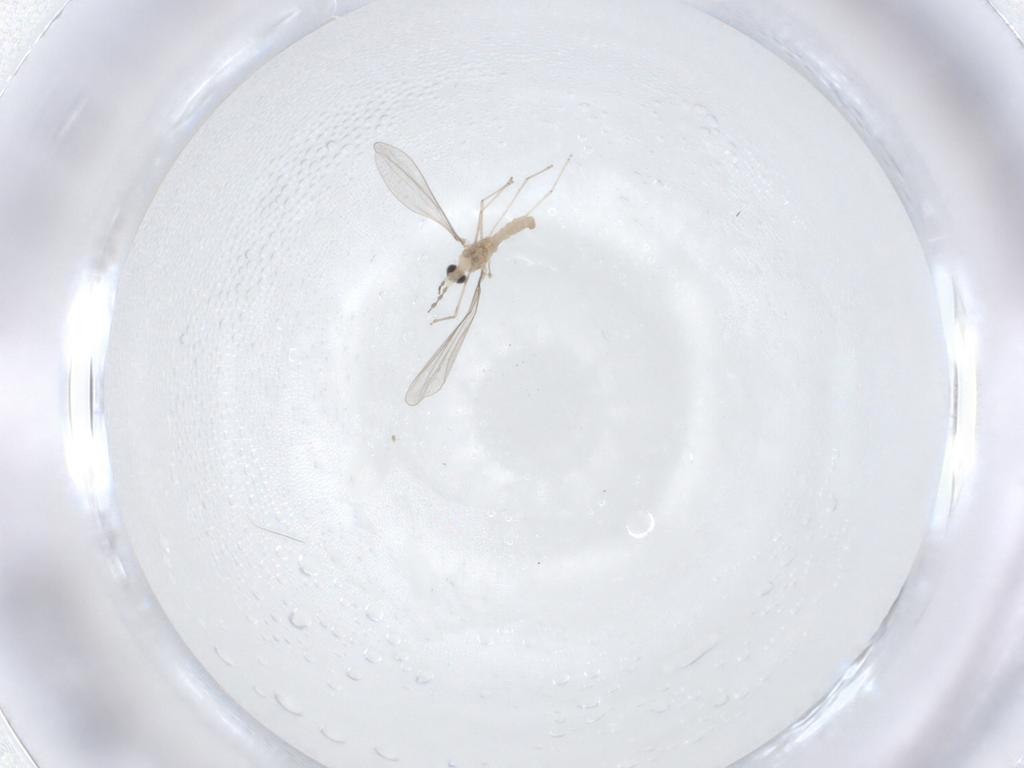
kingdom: Animalia
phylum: Arthropoda
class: Insecta
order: Diptera
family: Cecidomyiidae
